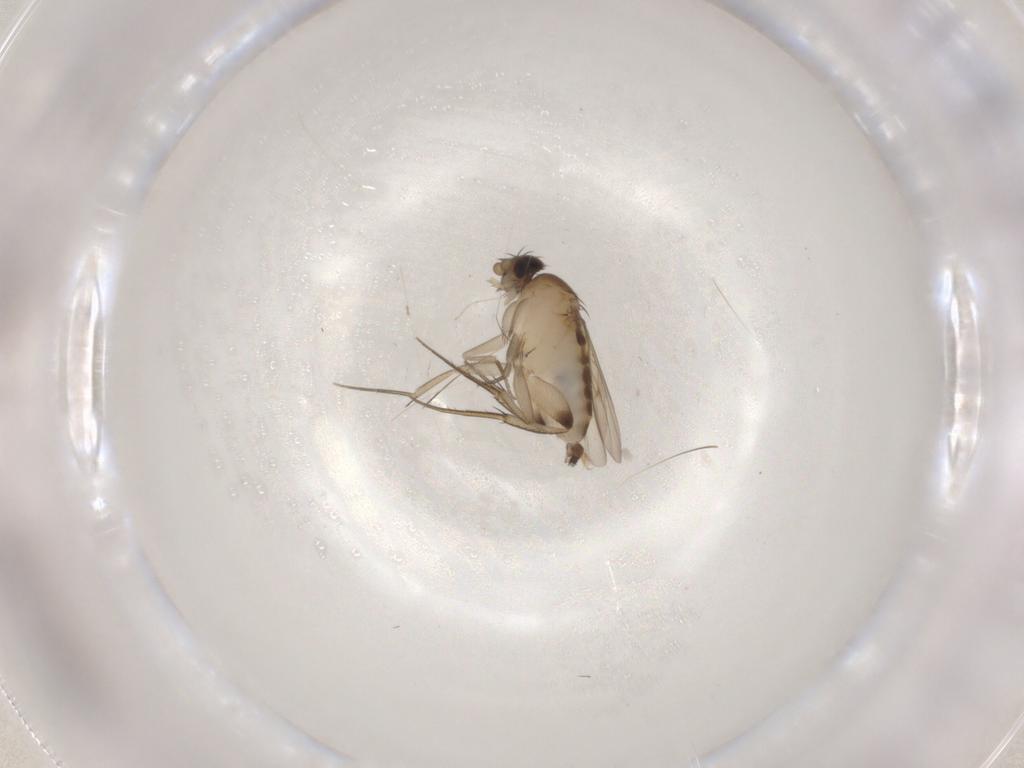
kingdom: Animalia
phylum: Arthropoda
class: Insecta
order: Diptera
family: Phoridae
